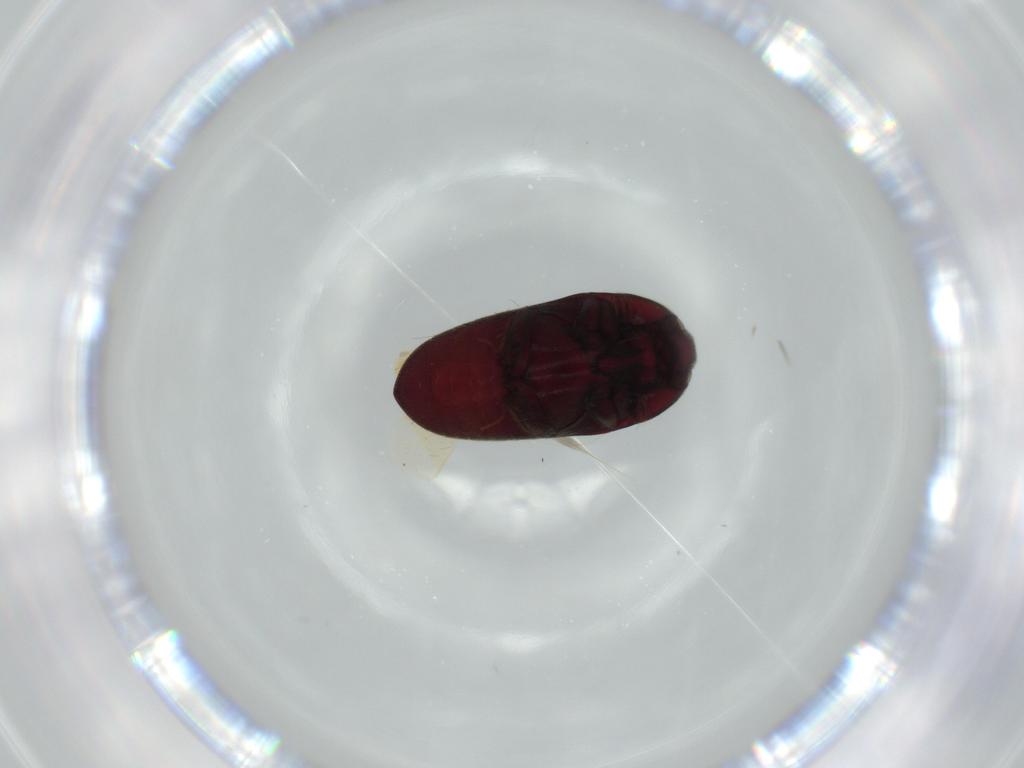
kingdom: Animalia
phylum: Arthropoda
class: Insecta
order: Coleoptera
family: Throscidae
